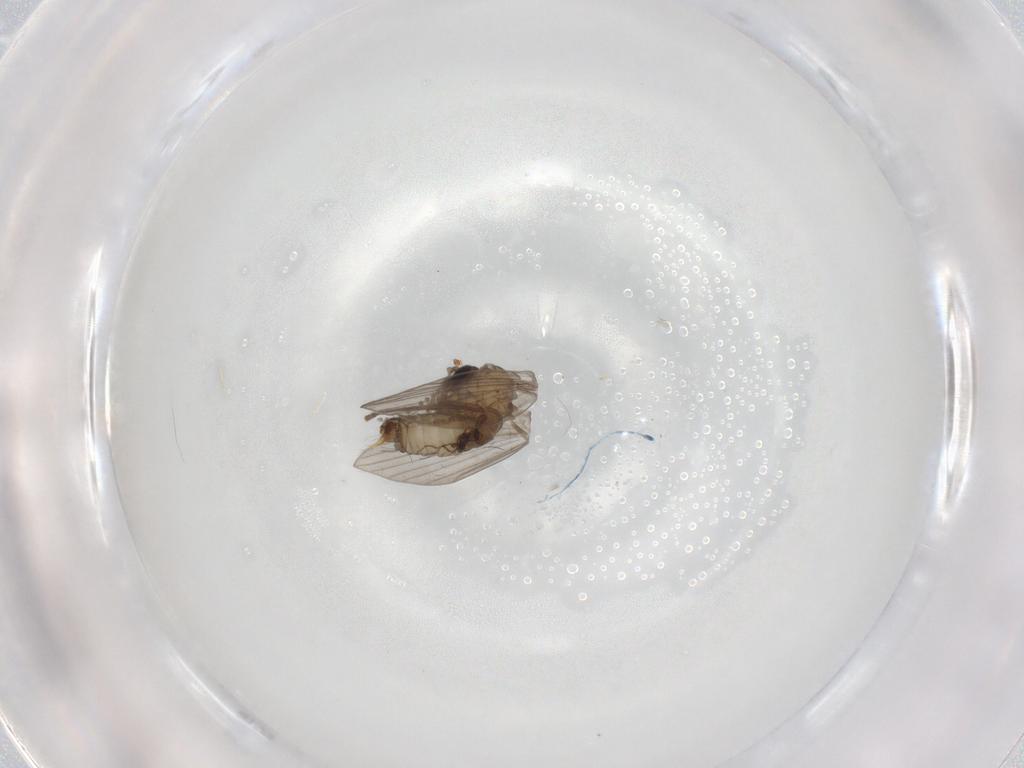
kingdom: Animalia
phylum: Arthropoda
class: Insecta
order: Diptera
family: Psychodidae
